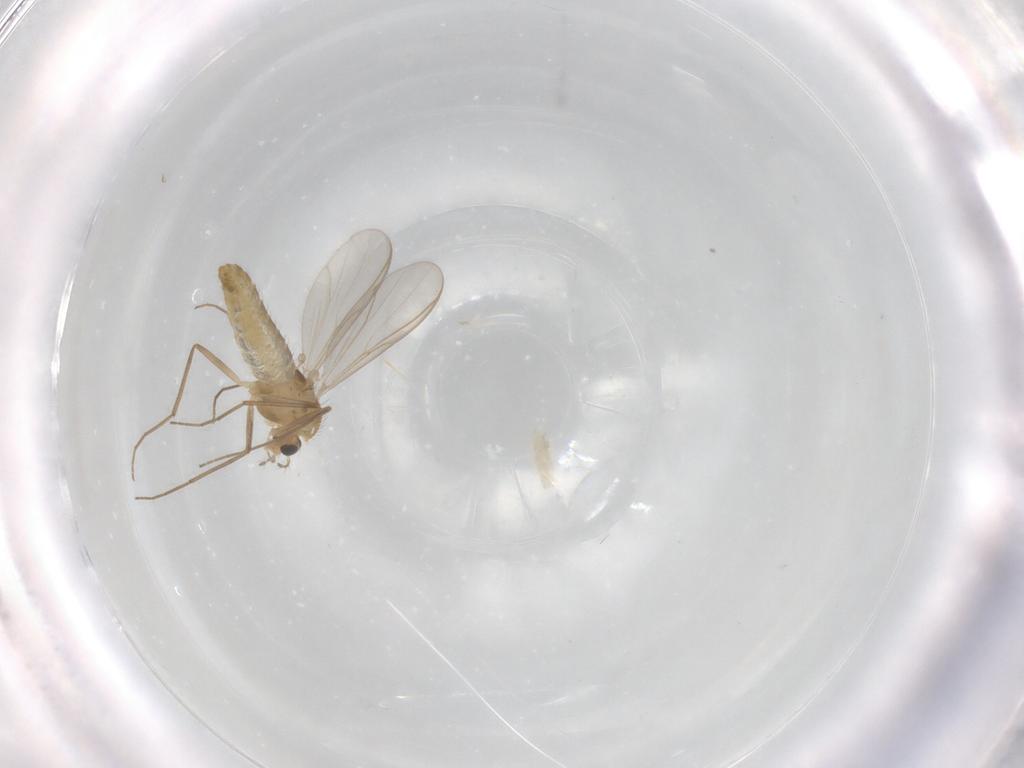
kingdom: Animalia
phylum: Arthropoda
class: Insecta
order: Diptera
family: Chironomidae
